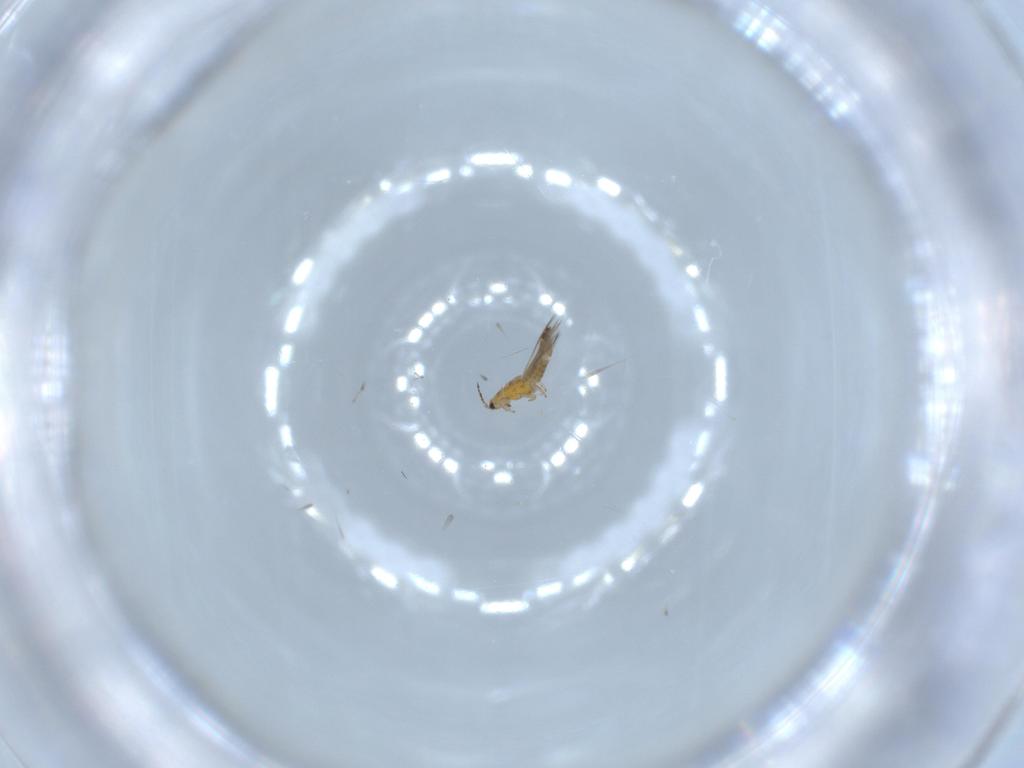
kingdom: Animalia
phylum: Arthropoda
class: Insecta
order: Thysanoptera
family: Thripidae
